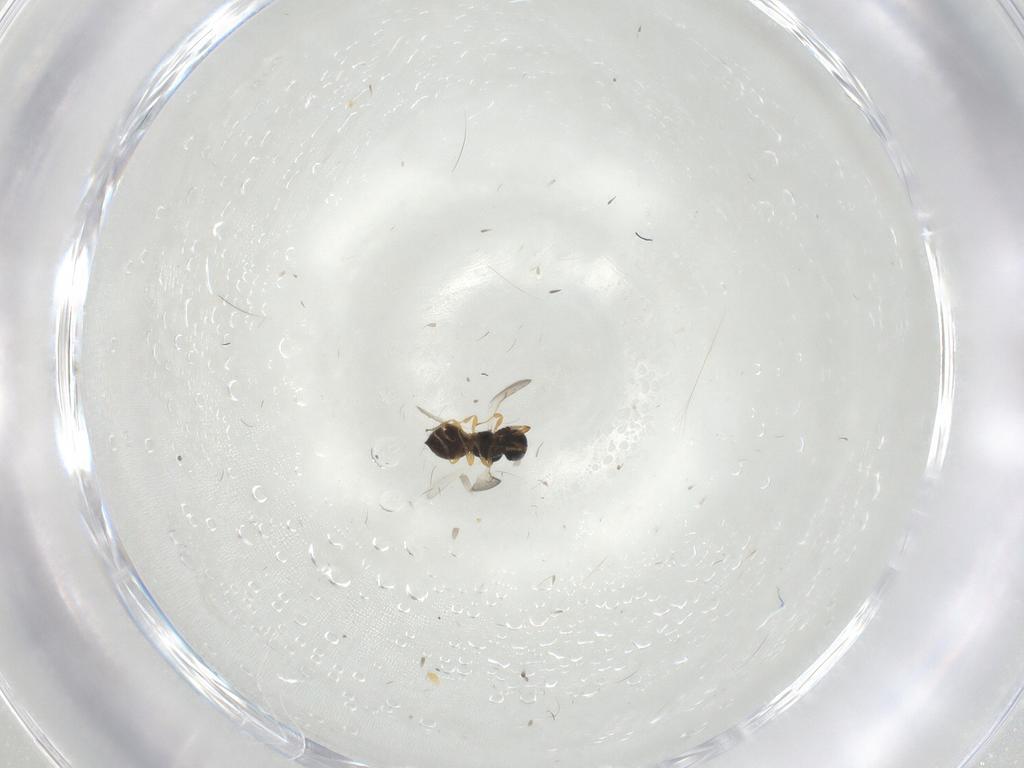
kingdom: Animalia
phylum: Arthropoda
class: Insecta
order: Hymenoptera
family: Scelionidae
